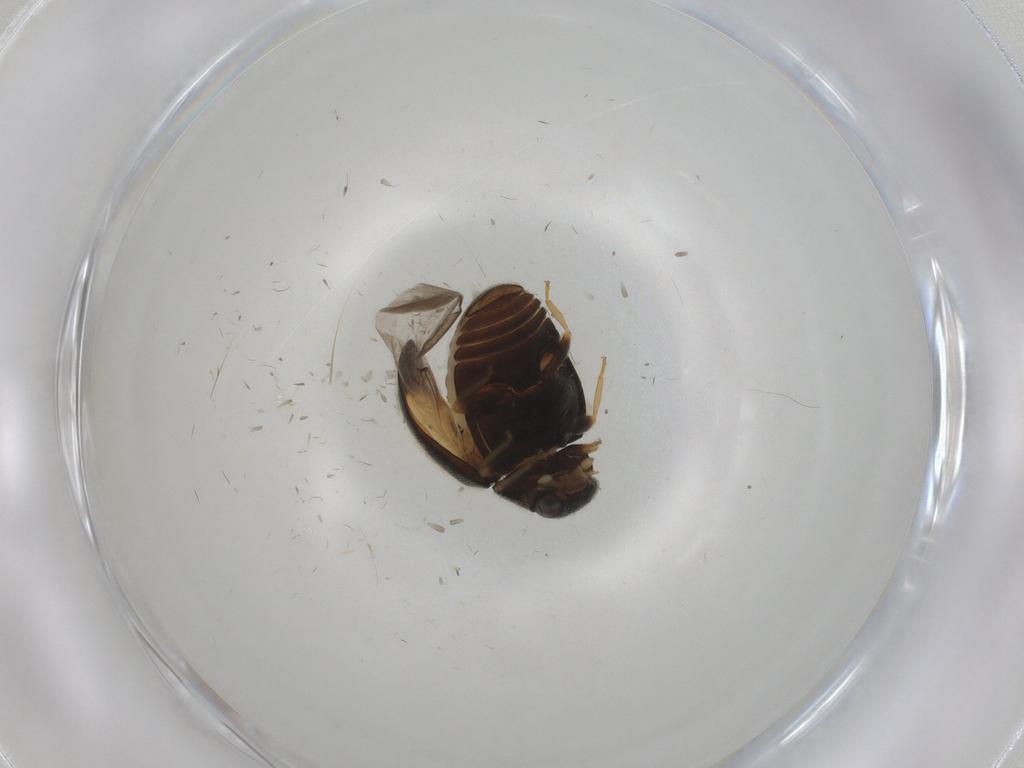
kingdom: Animalia
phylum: Arthropoda
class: Insecta
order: Coleoptera
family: Coccinellidae
